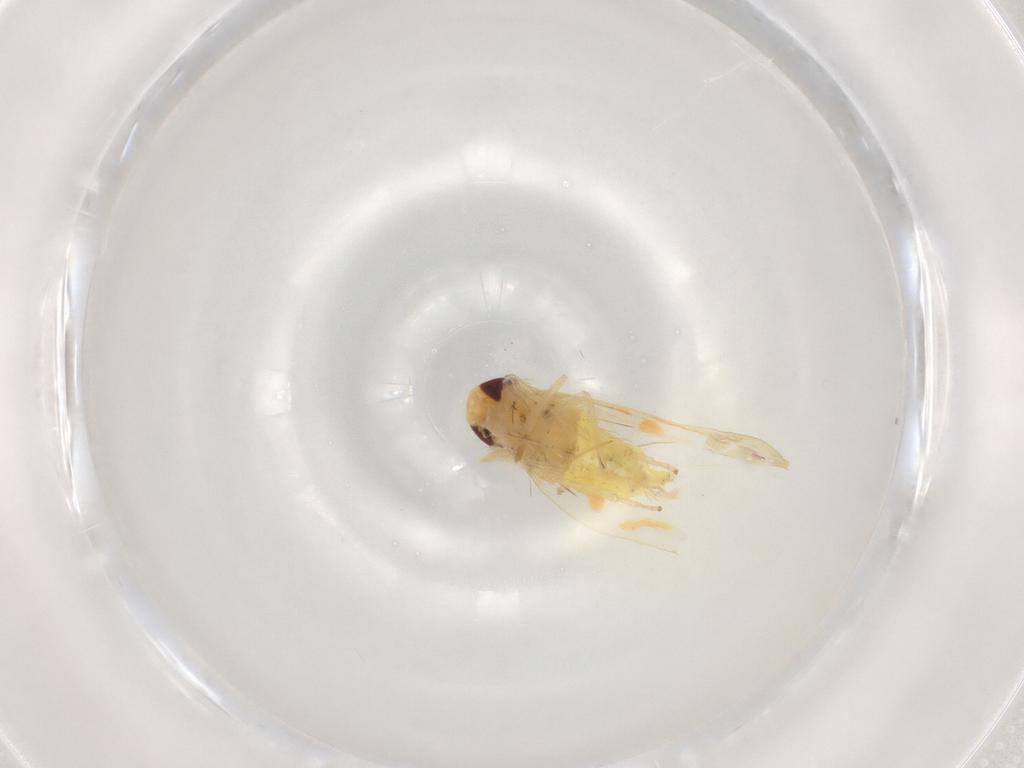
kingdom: Animalia
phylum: Arthropoda
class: Insecta
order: Hemiptera
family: Cicadellidae
